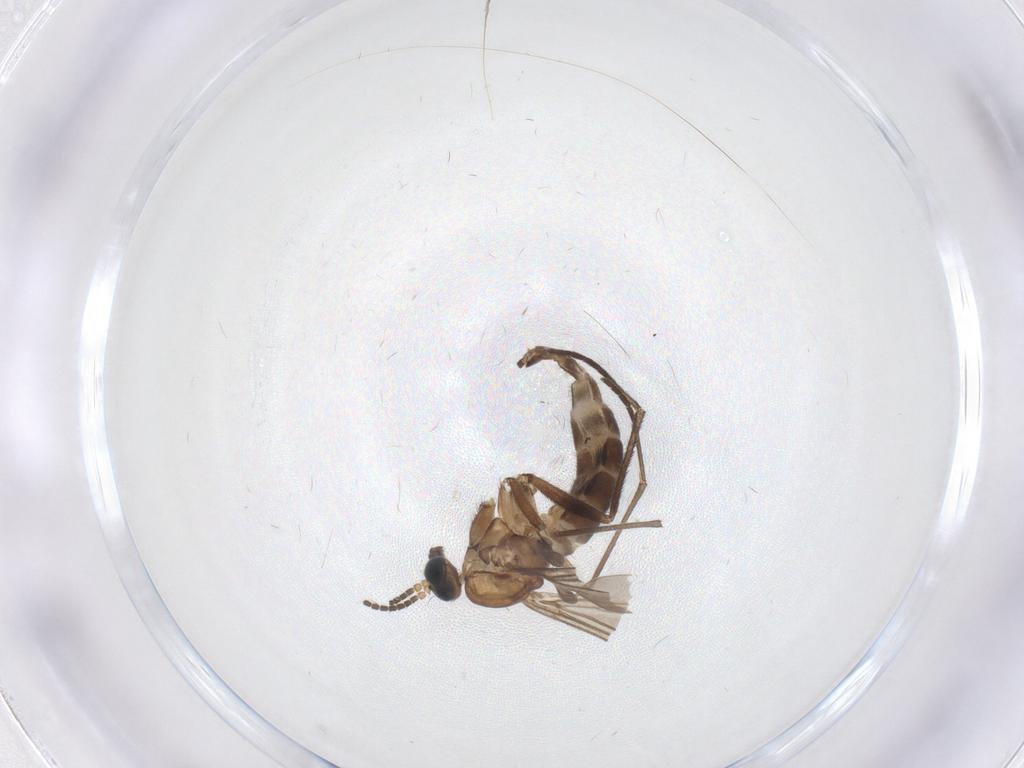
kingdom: Animalia
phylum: Arthropoda
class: Insecta
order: Diptera
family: Sciaridae
